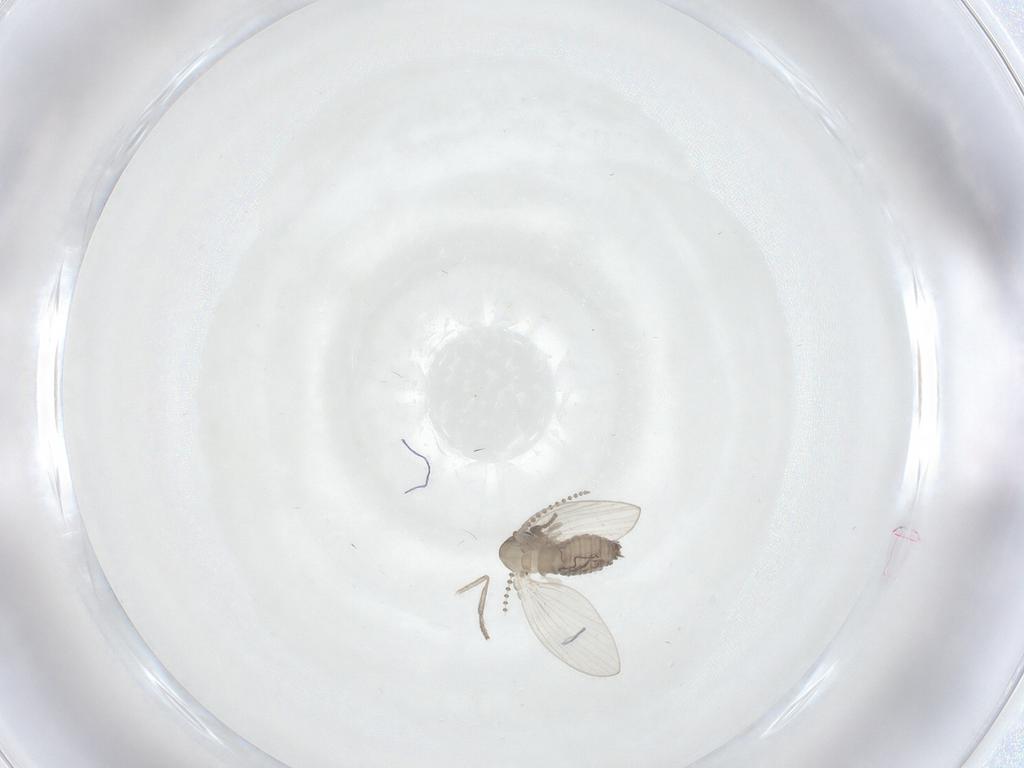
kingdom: Animalia
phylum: Arthropoda
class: Insecta
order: Diptera
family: Psychodidae
